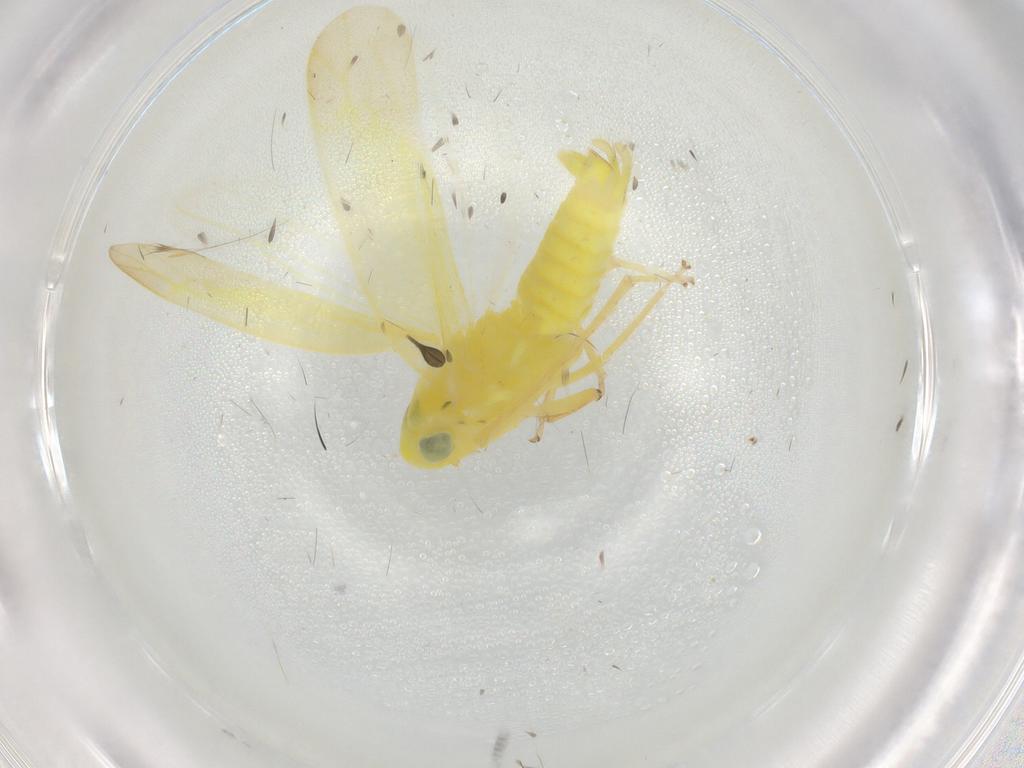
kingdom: Animalia
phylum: Arthropoda
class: Insecta
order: Hemiptera
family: Cicadellidae
